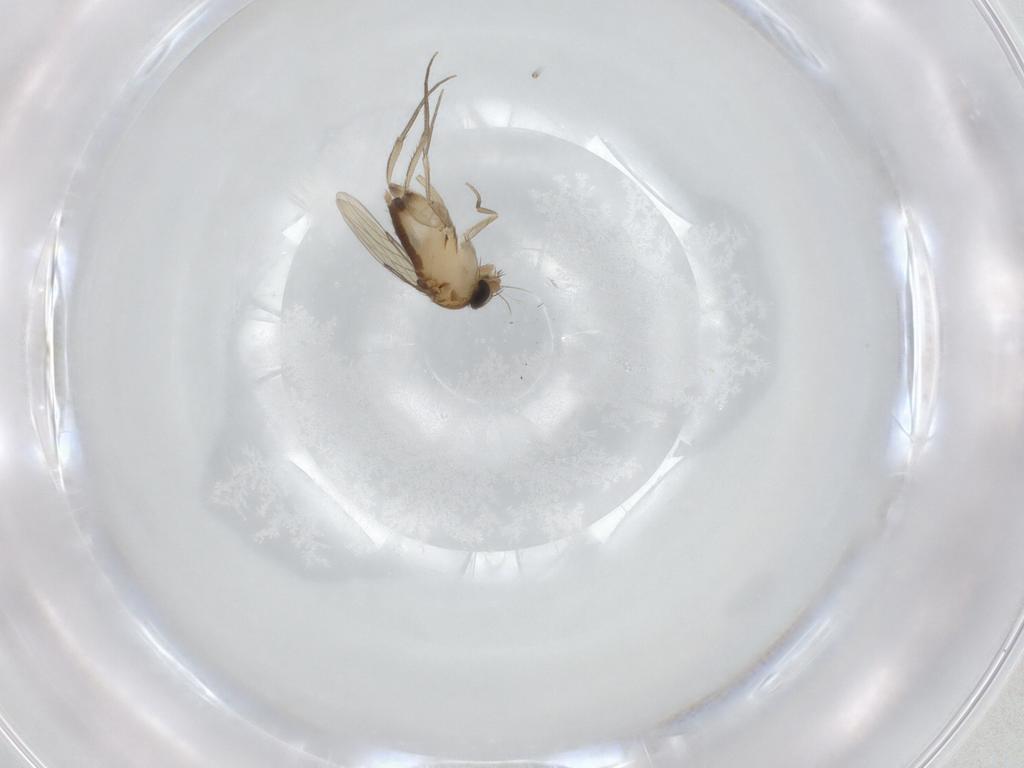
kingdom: Animalia
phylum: Arthropoda
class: Insecta
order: Diptera
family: Phoridae
